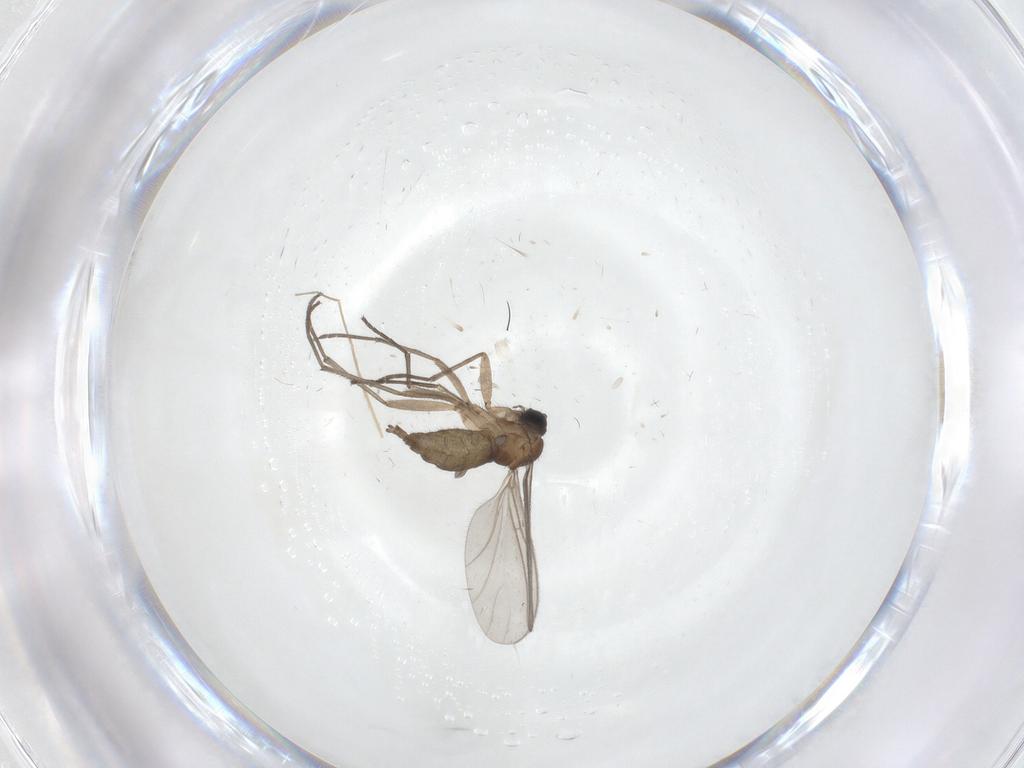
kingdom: Animalia
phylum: Arthropoda
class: Insecta
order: Diptera
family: Sciaridae
